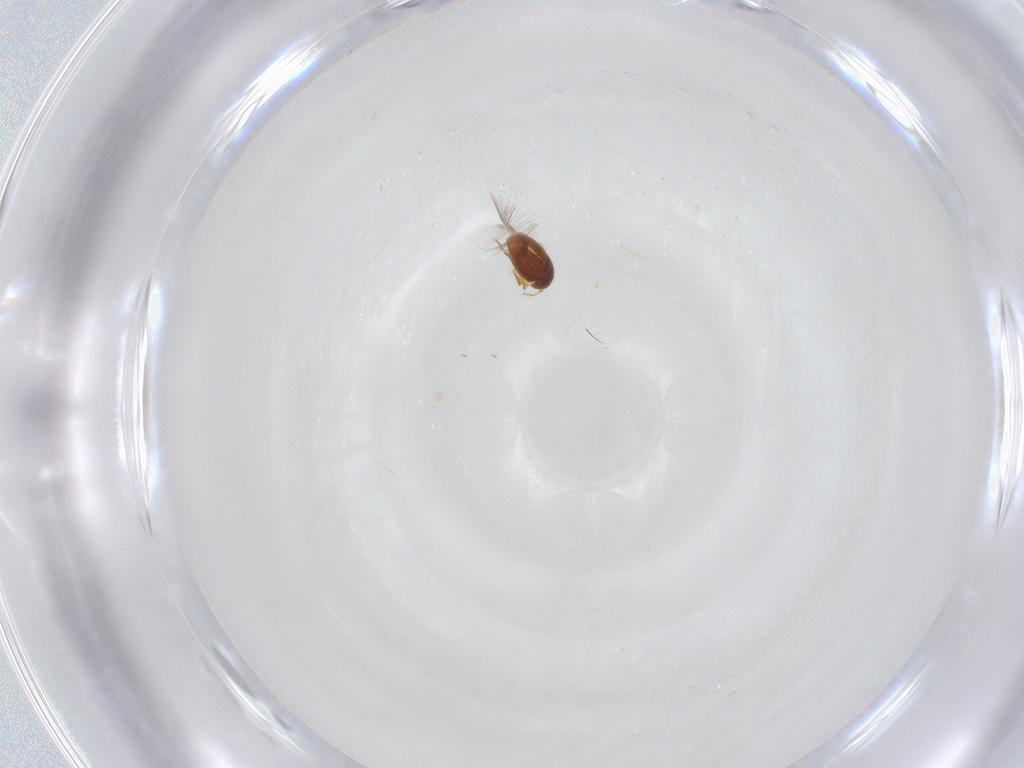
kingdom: Animalia
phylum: Arthropoda
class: Insecta
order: Coleoptera
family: Ptiliidae
